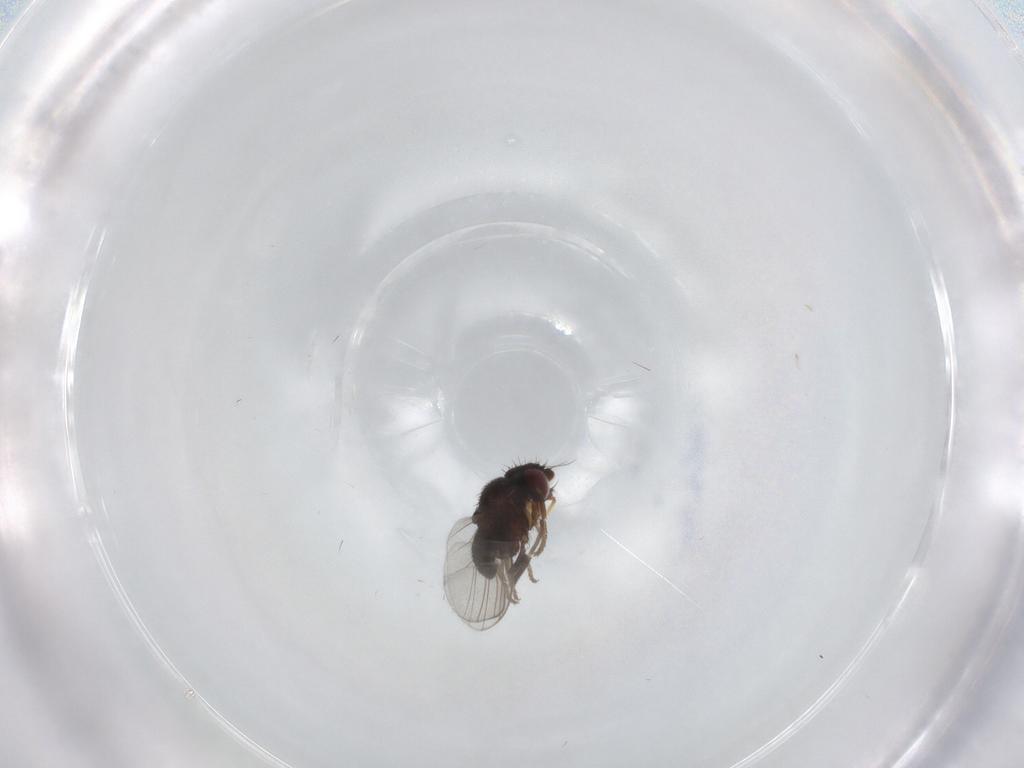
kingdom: Animalia
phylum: Arthropoda
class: Insecta
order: Diptera
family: Milichiidae
